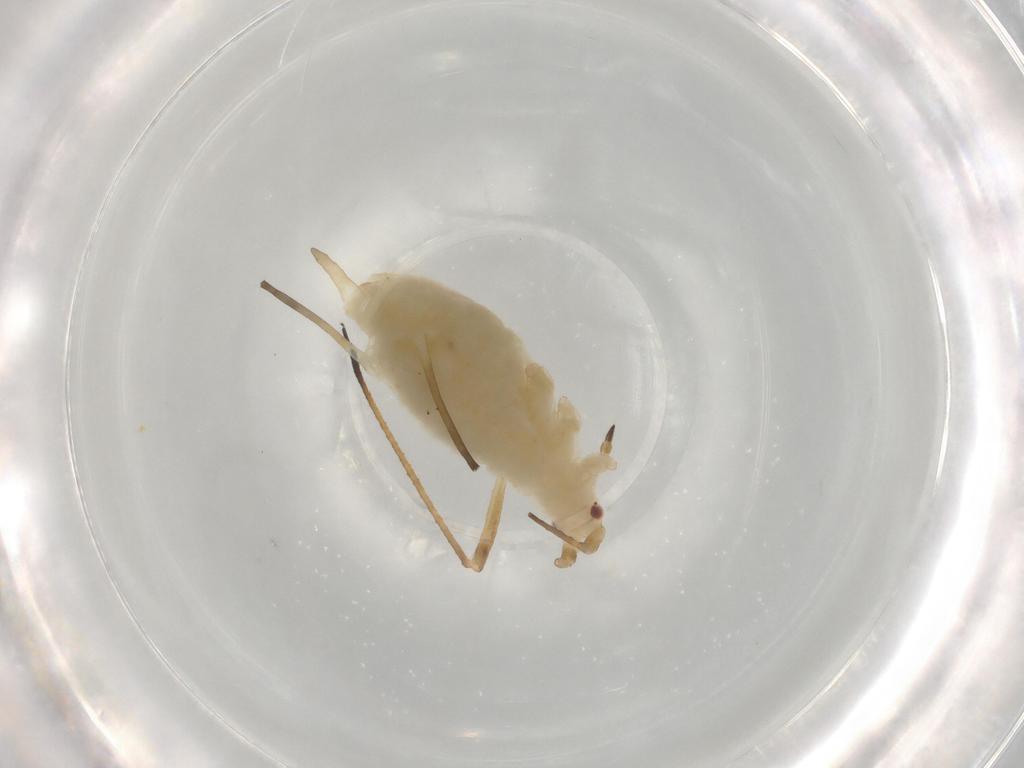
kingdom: Animalia
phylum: Arthropoda
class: Insecta
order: Hemiptera
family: Aphididae
